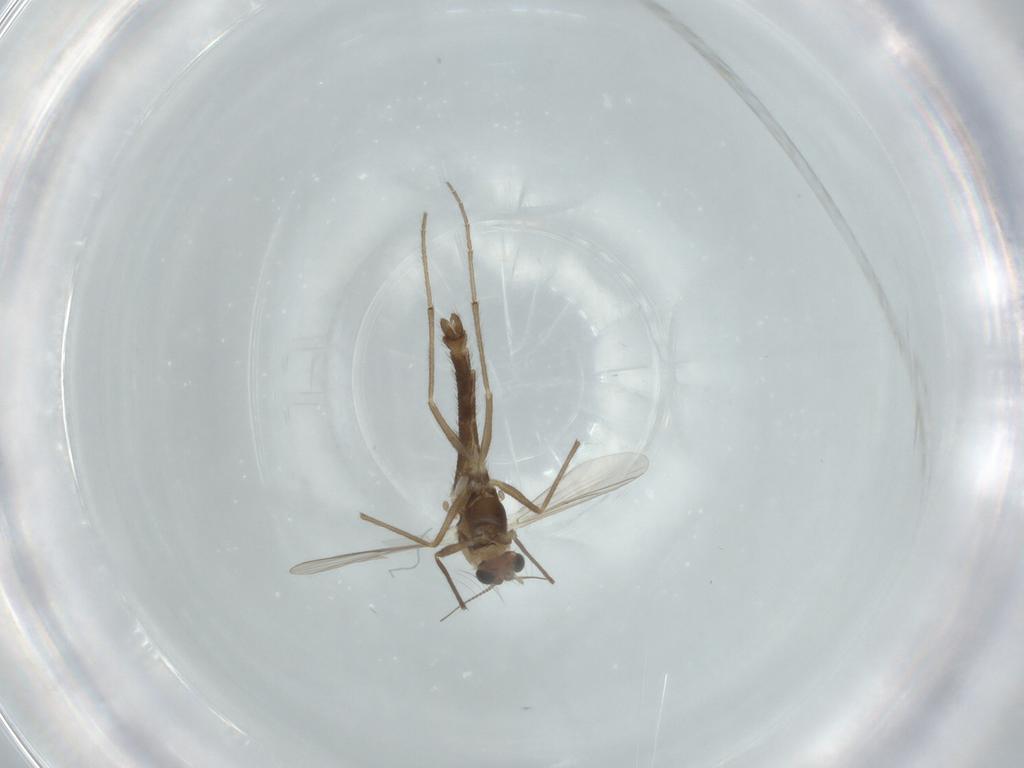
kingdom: Animalia
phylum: Arthropoda
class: Insecta
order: Diptera
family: Chironomidae
